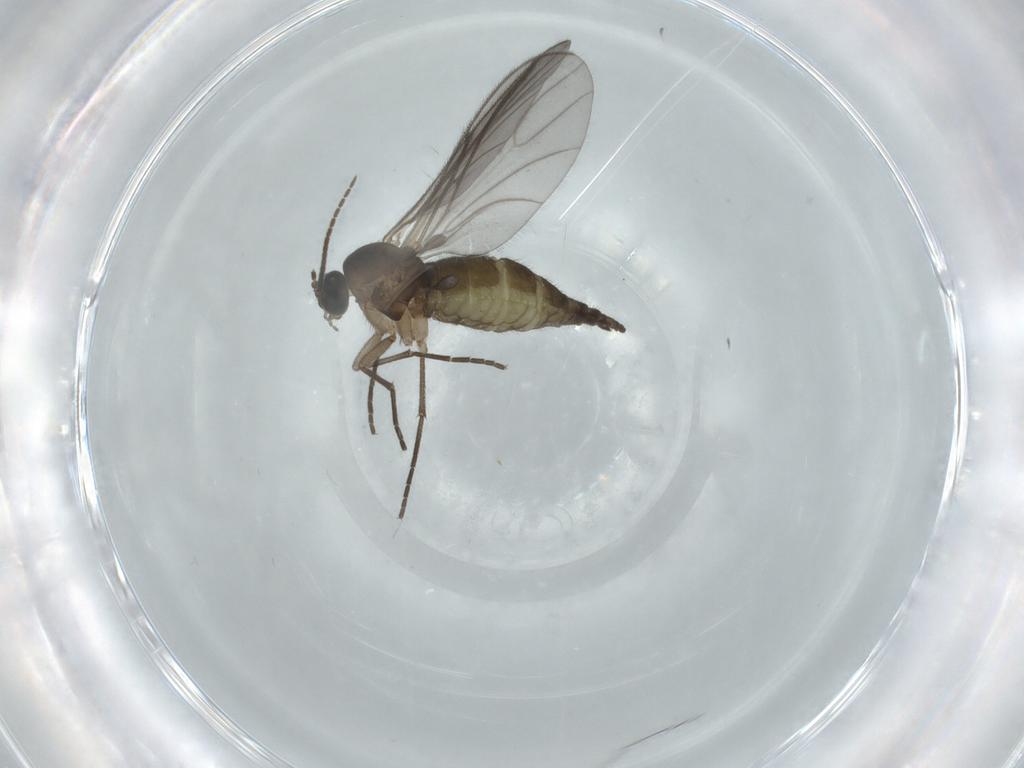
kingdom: Animalia
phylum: Arthropoda
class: Insecta
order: Diptera
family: Sciaridae
